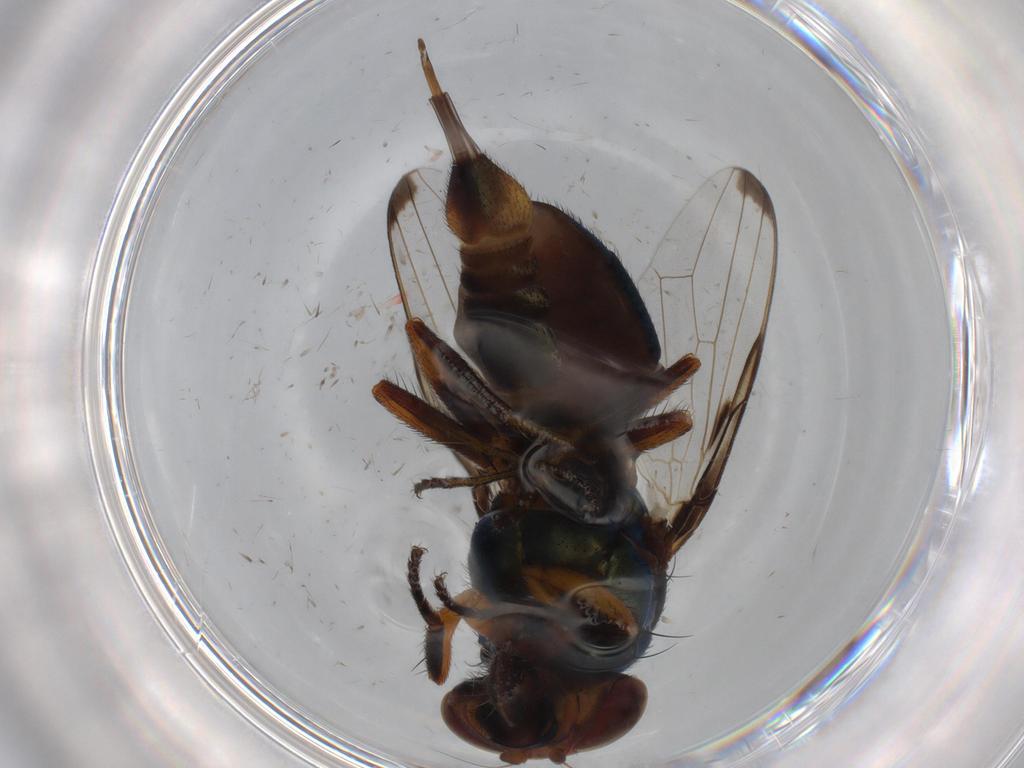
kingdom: Animalia
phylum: Arthropoda
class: Insecta
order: Diptera
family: Ulidiidae
